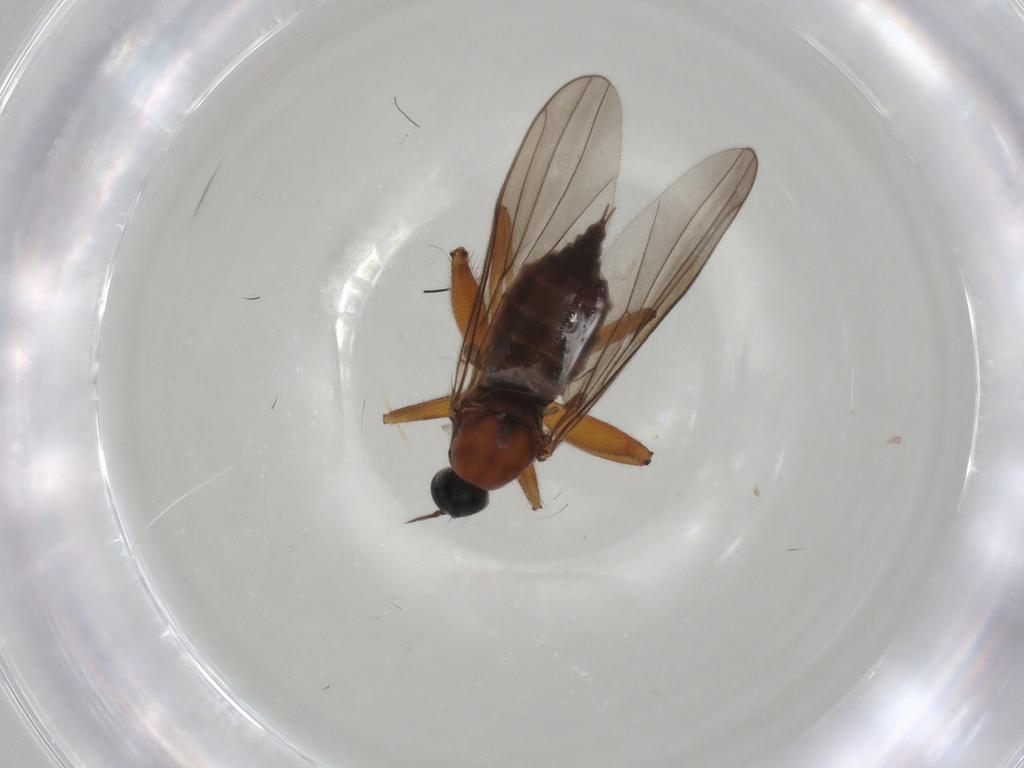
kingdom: Animalia
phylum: Arthropoda
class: Insecta
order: Diptera
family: Hybotidae
